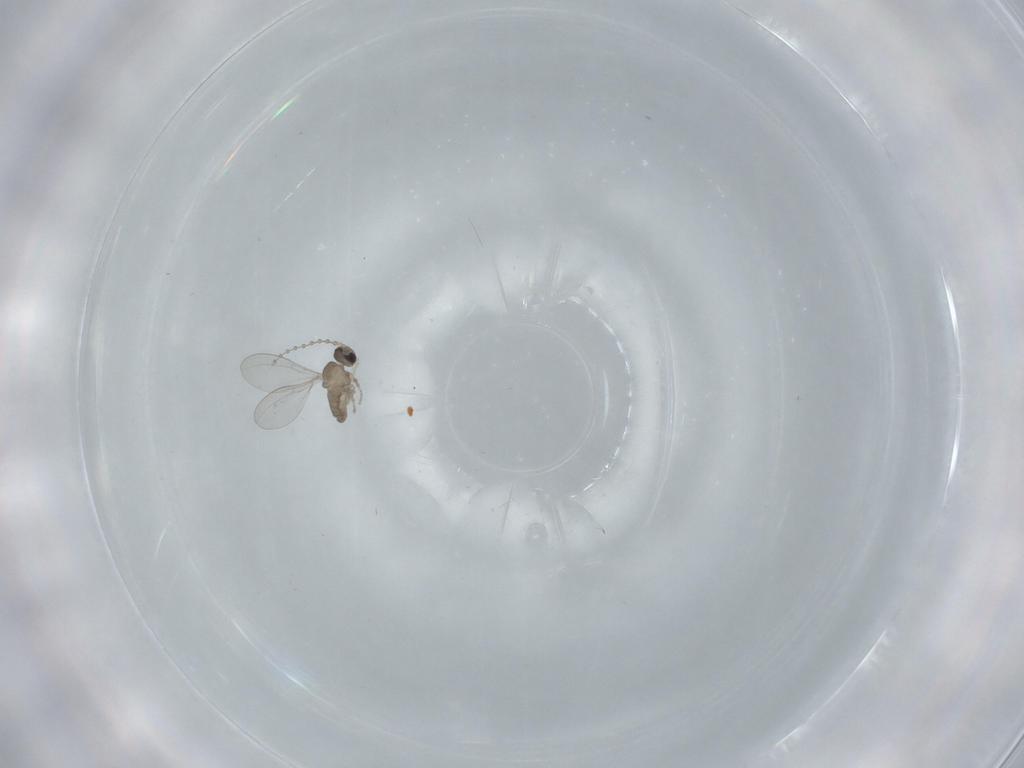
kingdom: Animalia
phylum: Arthropoda
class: Insecta
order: Diptera
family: Cecidomyiidae
